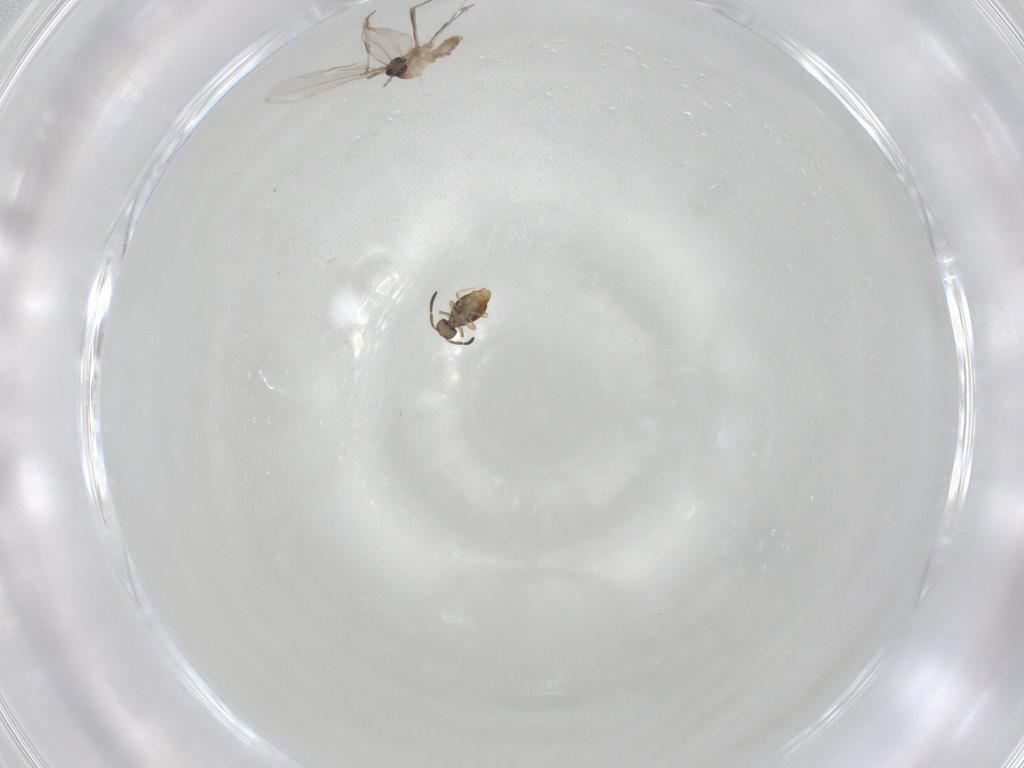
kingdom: Animalia
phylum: Arthropoda
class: Collembola
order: Symphypleona
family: Katiannidae
